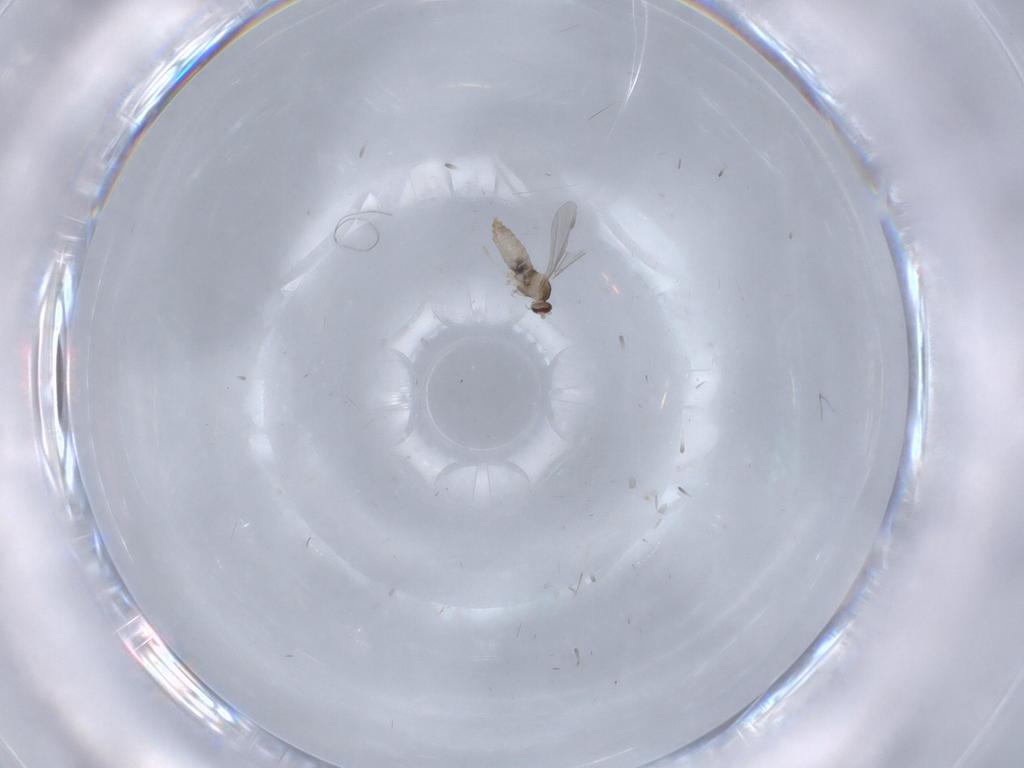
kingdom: Animalia
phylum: Arthropoda
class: Insecta
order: Diptera
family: Cecidomyiidae
